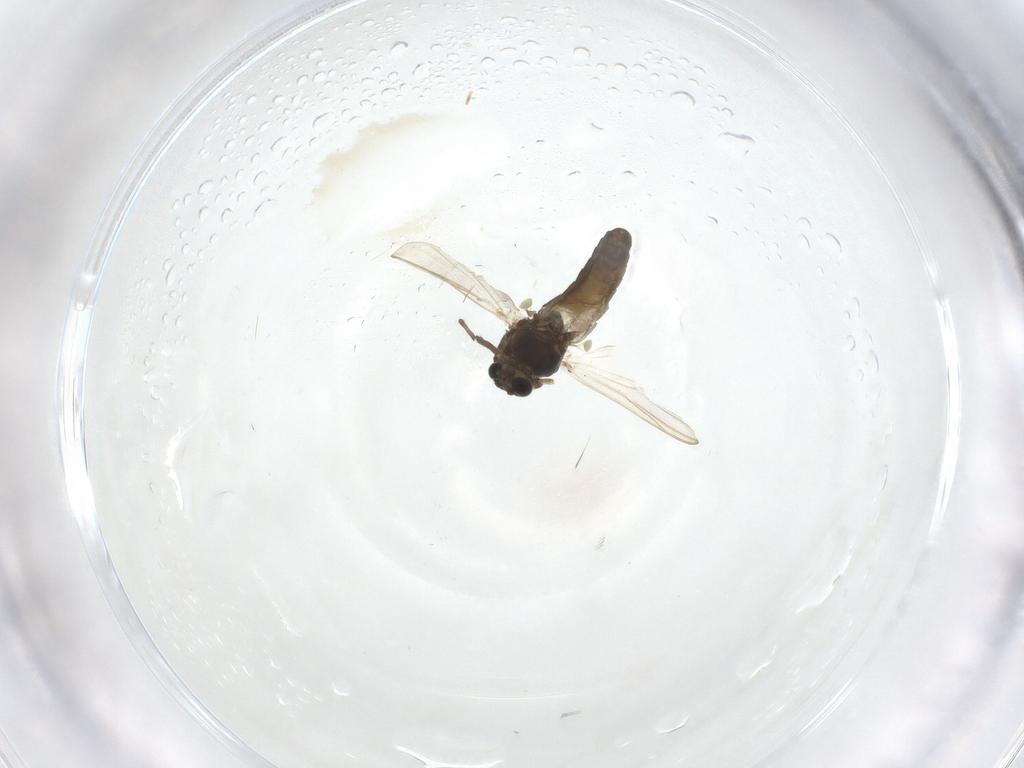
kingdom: Animalia
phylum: Arthropoda
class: Insecta
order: Diptera
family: Chironomidae
